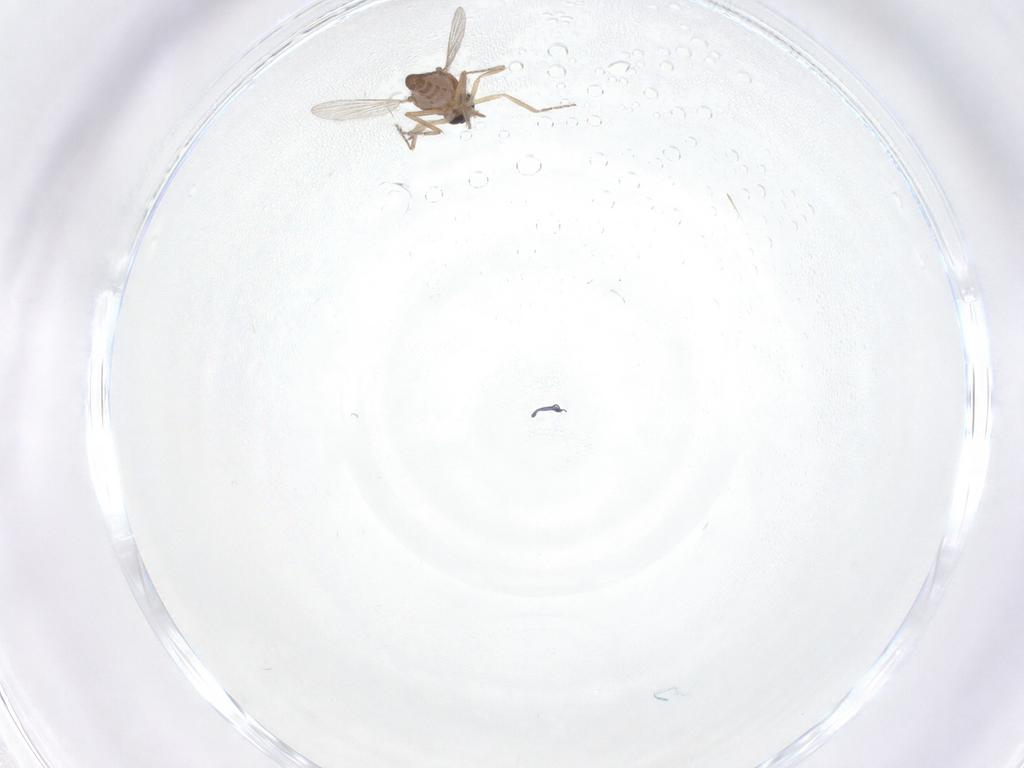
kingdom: Animalia
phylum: Arthropoda
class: Insecta
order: Diptera
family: Ceratopogonidae
